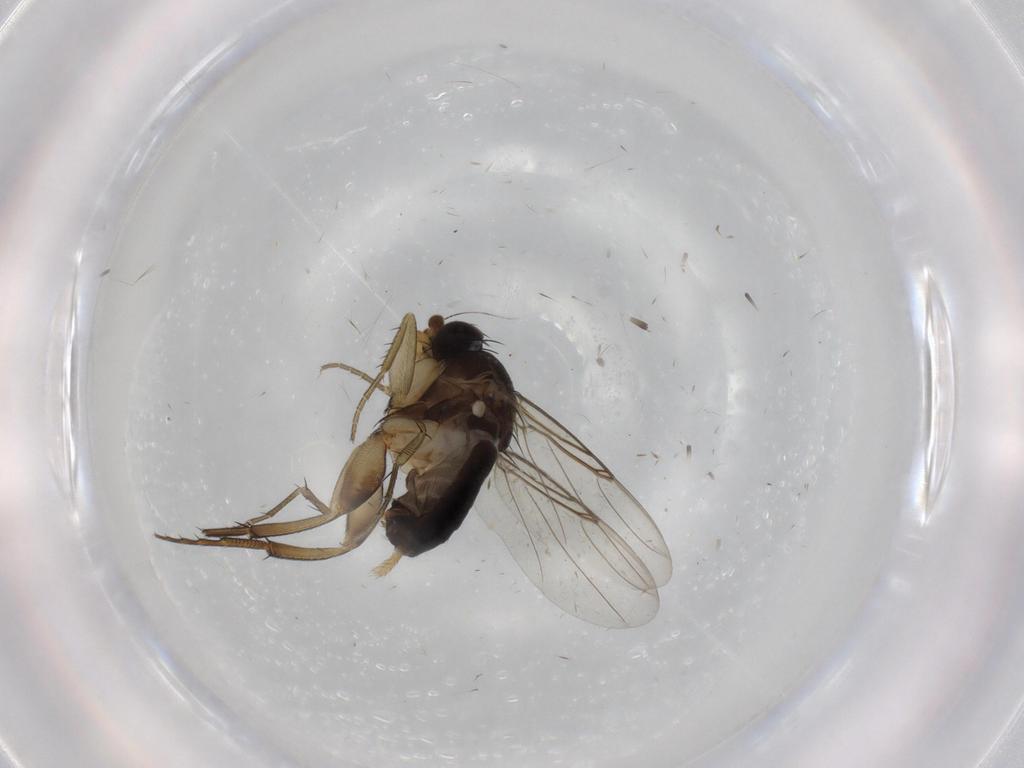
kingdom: Animalia
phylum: Arthropoda
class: Insecta
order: Diptera
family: Phoridae
